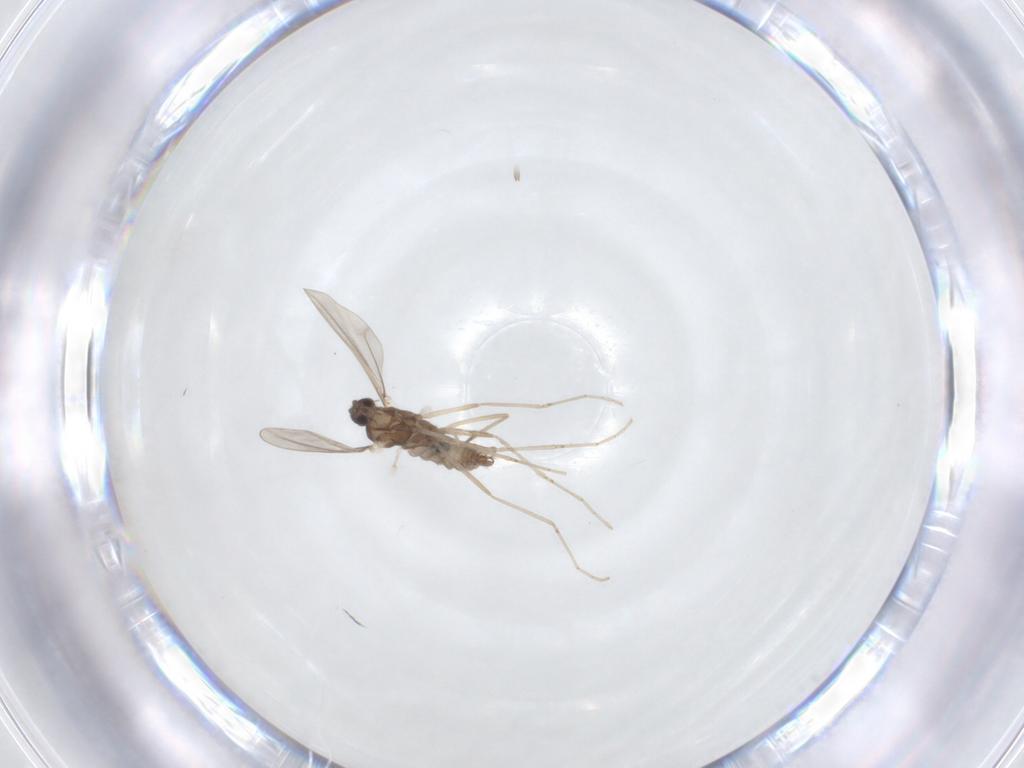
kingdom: Animalia
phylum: Arthropoda
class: Insecta
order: Diptera
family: Cecidomyiidae
